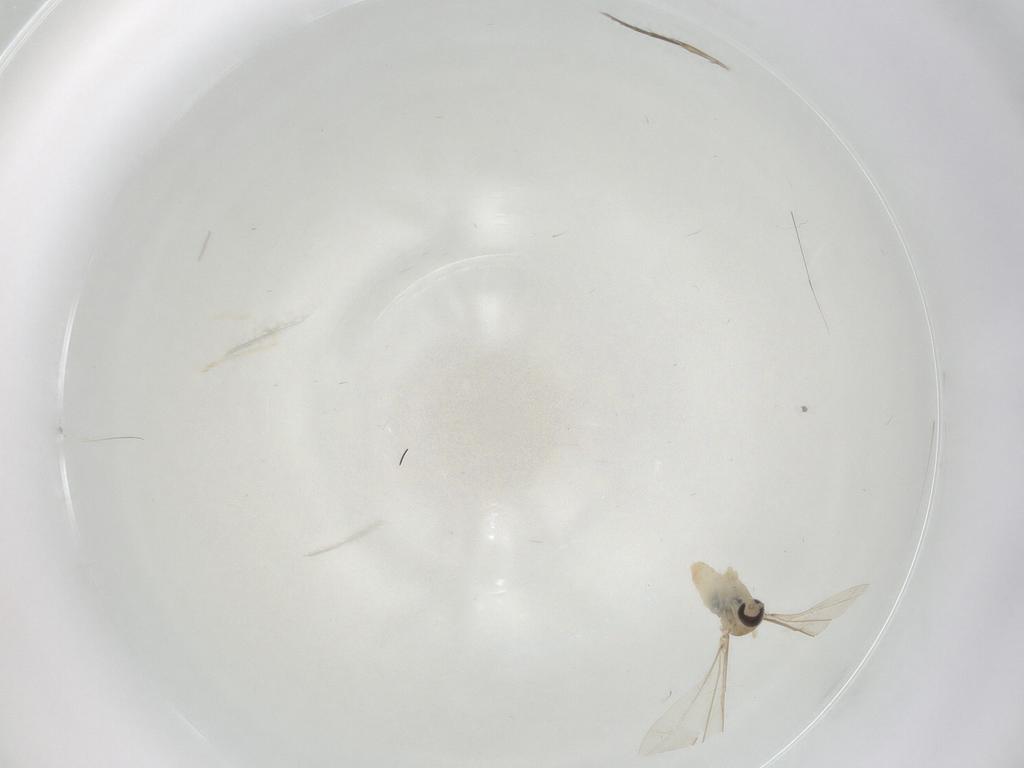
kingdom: Animalia
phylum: Arthropoda
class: Insecta
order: Diptera
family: Cecidomyiidae
